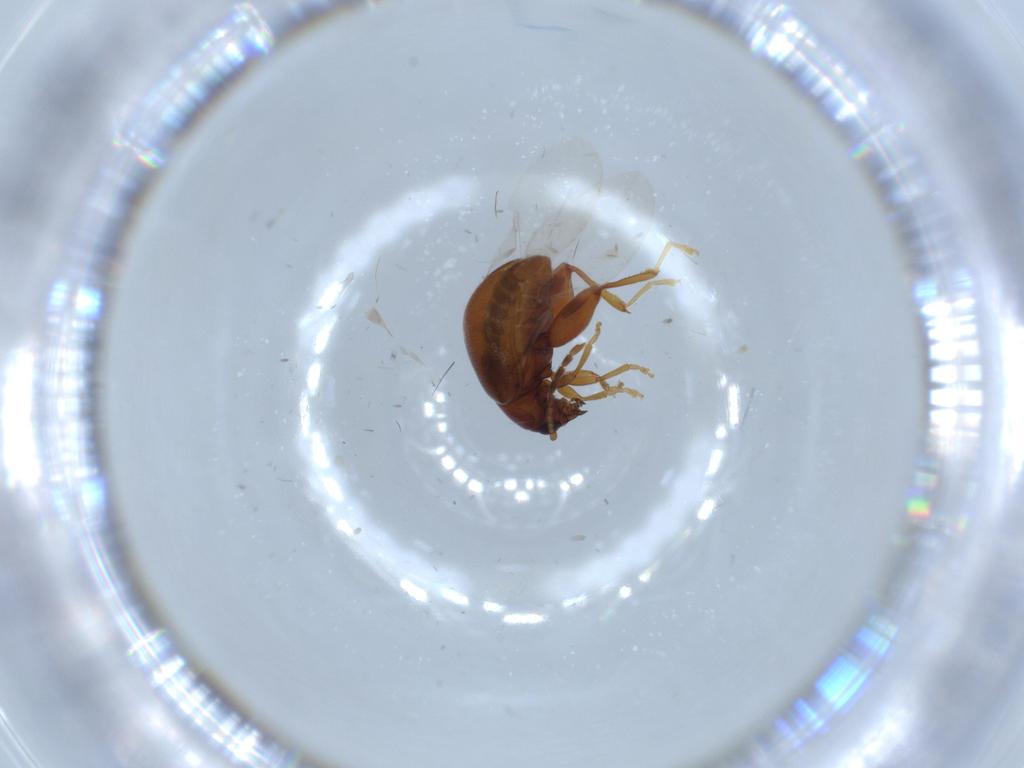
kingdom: Animalia
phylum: Arthropoda
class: Insecta
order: Coleoptera
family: Chrysomelidae
